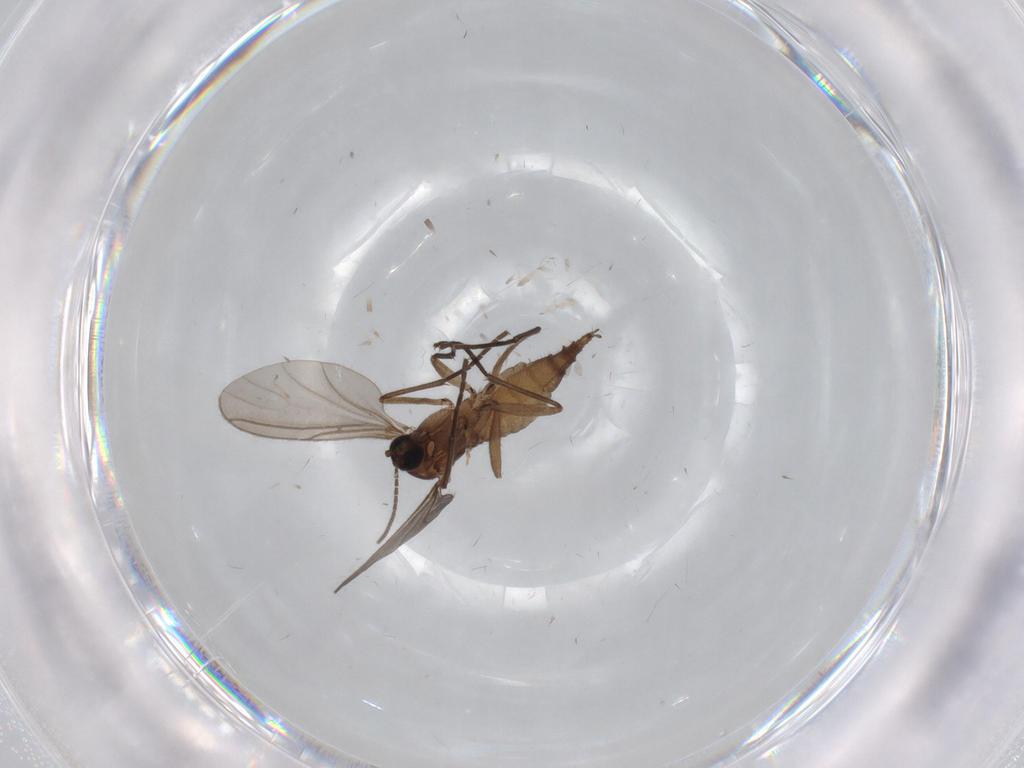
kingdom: Animalia
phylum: Arthropoda
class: Insecta
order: Diptera
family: Sciaridae
